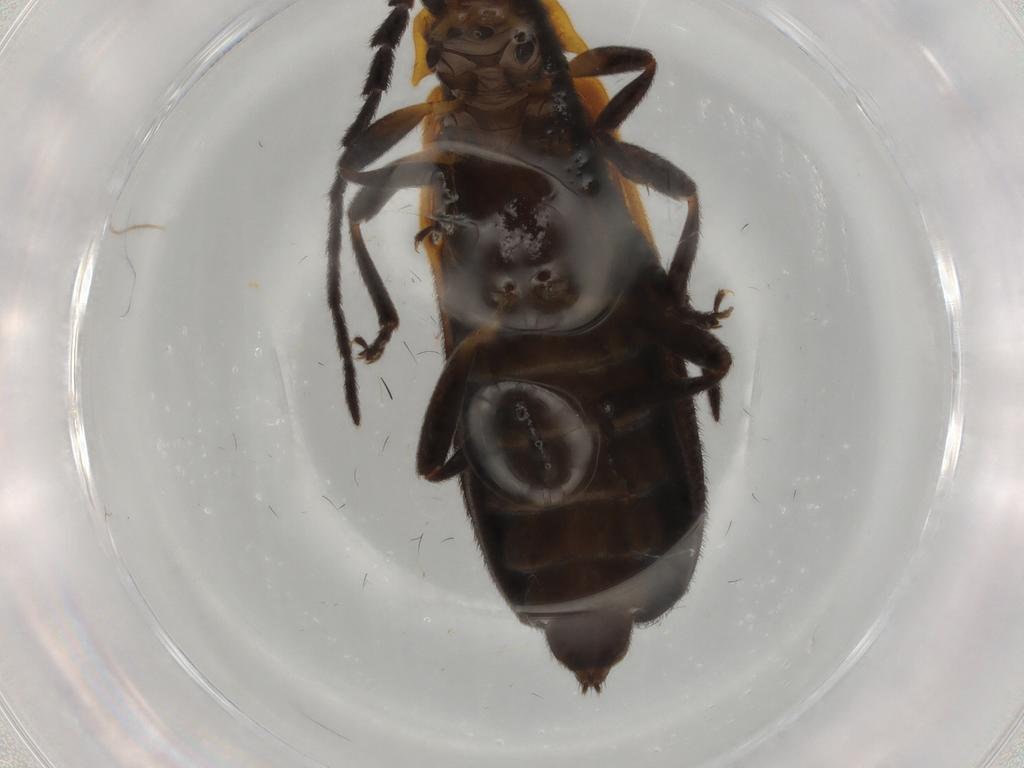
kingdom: Animalia
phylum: Arthropoda
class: Insecta
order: Coleoptera
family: Lycidae
